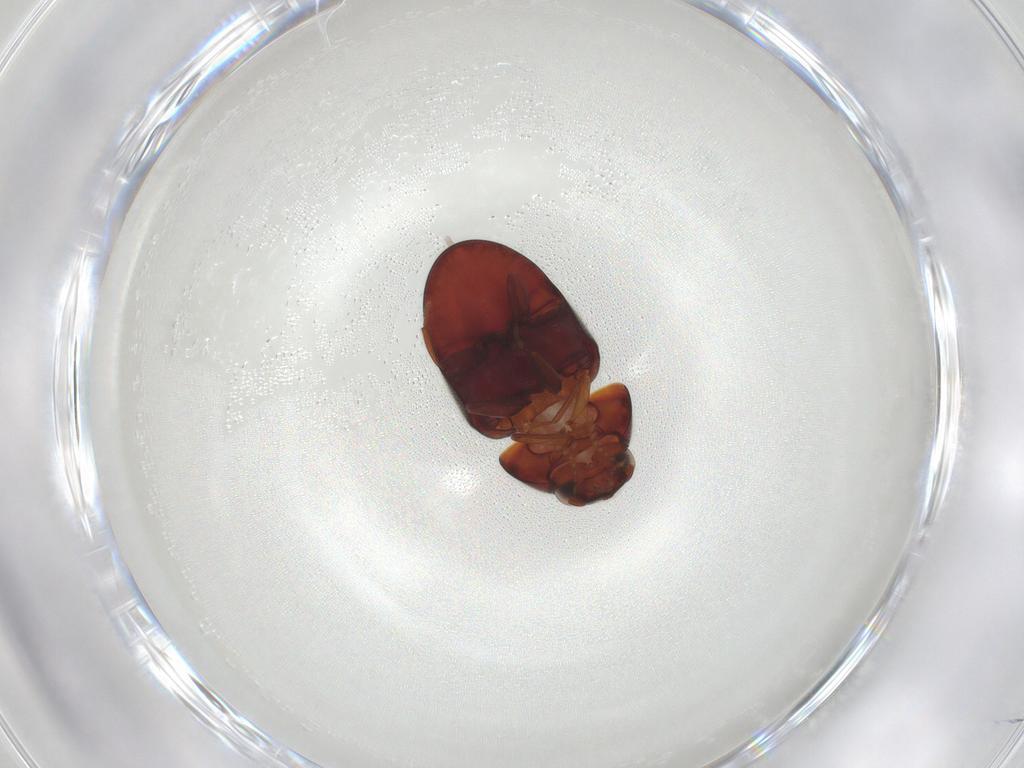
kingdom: Animalia
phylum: Arthropoda
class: Insecta
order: Coleoptera
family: Ptinidae
